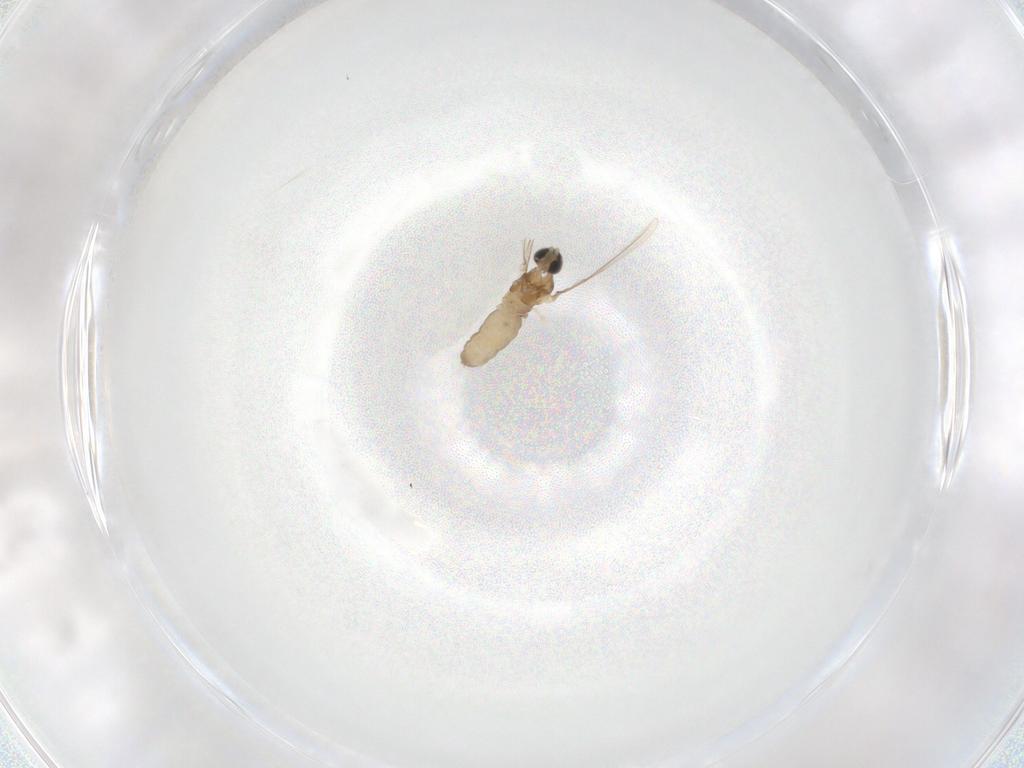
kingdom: Animalia
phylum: Arthropoda
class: Insecta
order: Diptera
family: Cecidomyiidae
